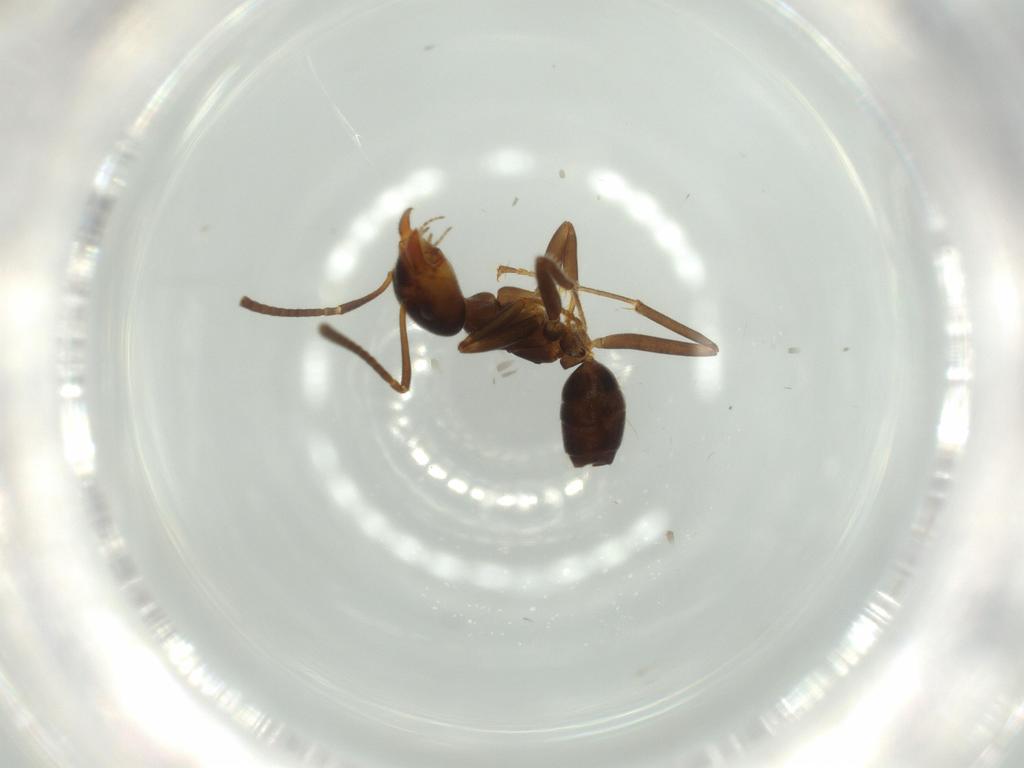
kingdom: Animalia
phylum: Arthropoda
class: Insecta
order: Hymenoptera
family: Formicidae
